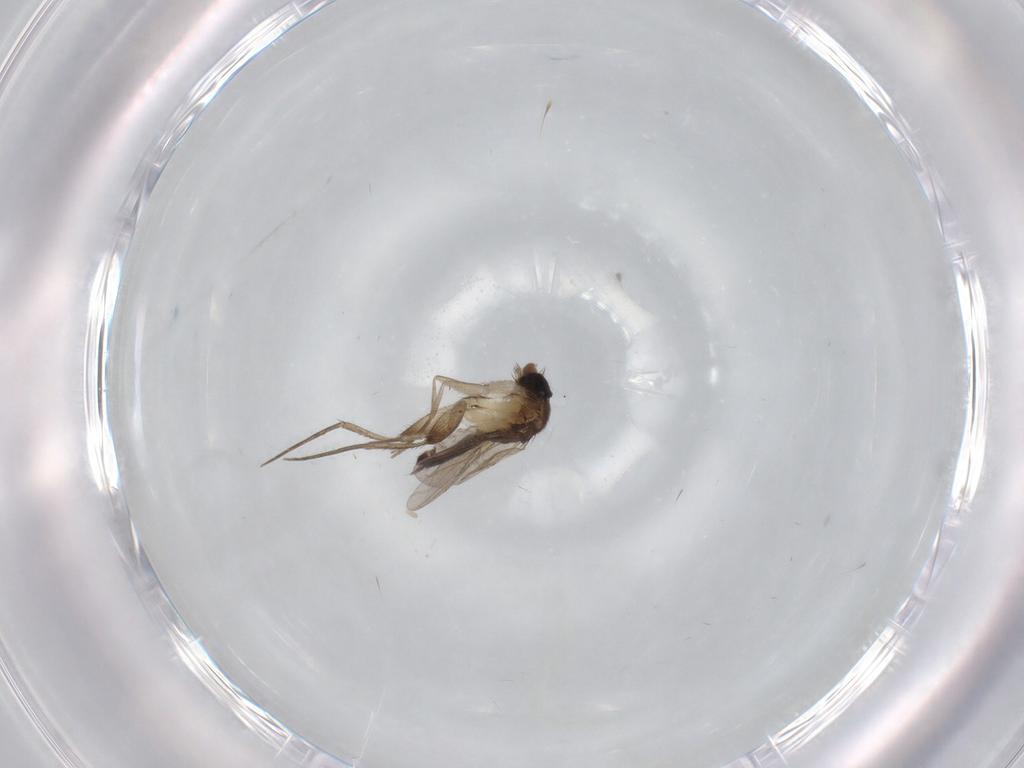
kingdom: Animalia
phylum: Arthropoda
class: Insecta
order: Diptera
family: Phoridae
